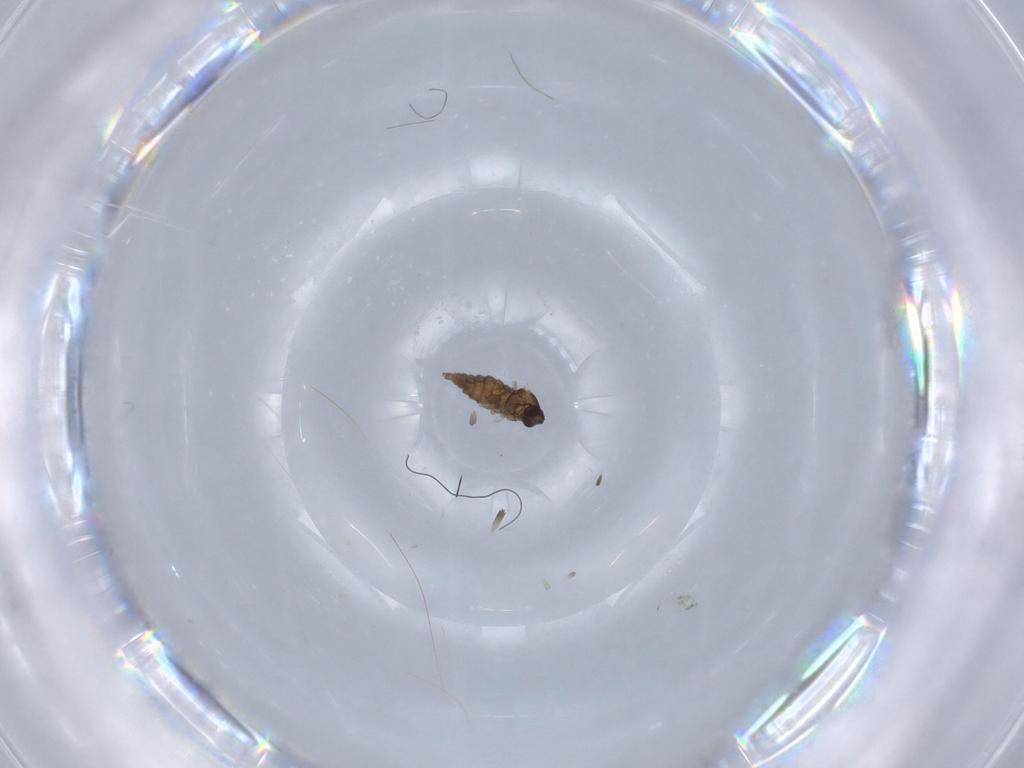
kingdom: Animalia
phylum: Arthropoda
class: Insecta
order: Diptera
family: Cecidomyiidae
